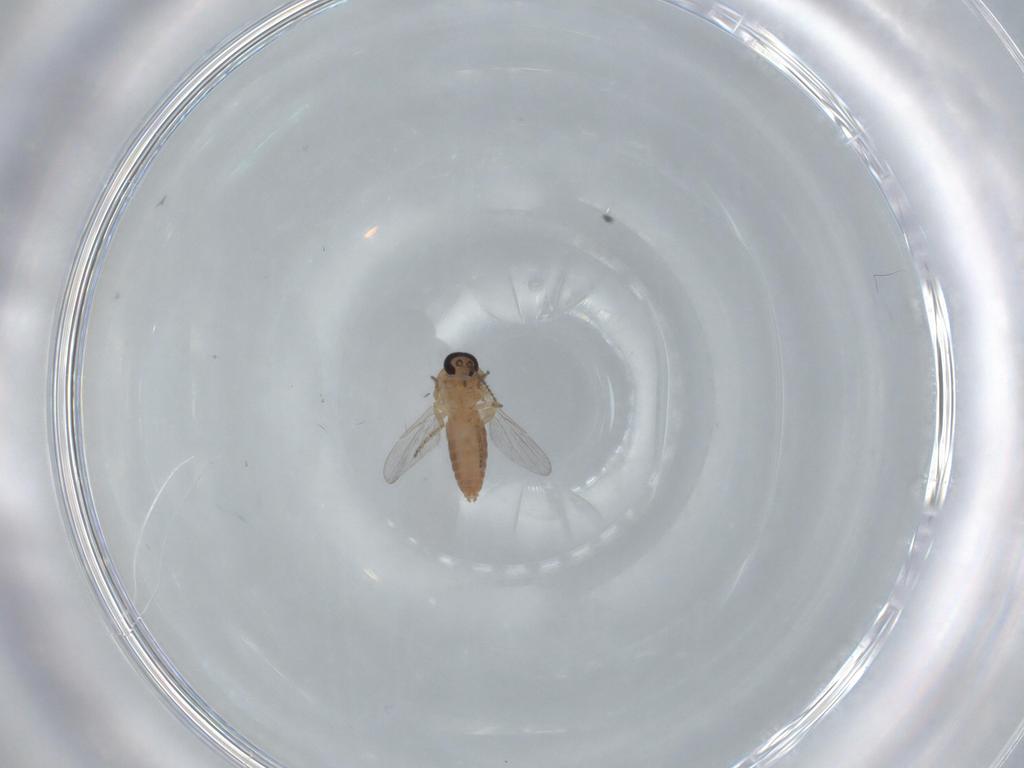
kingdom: Animalia
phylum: Arthropoda
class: Insecta
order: Diptera
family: Ceratopogonidae
